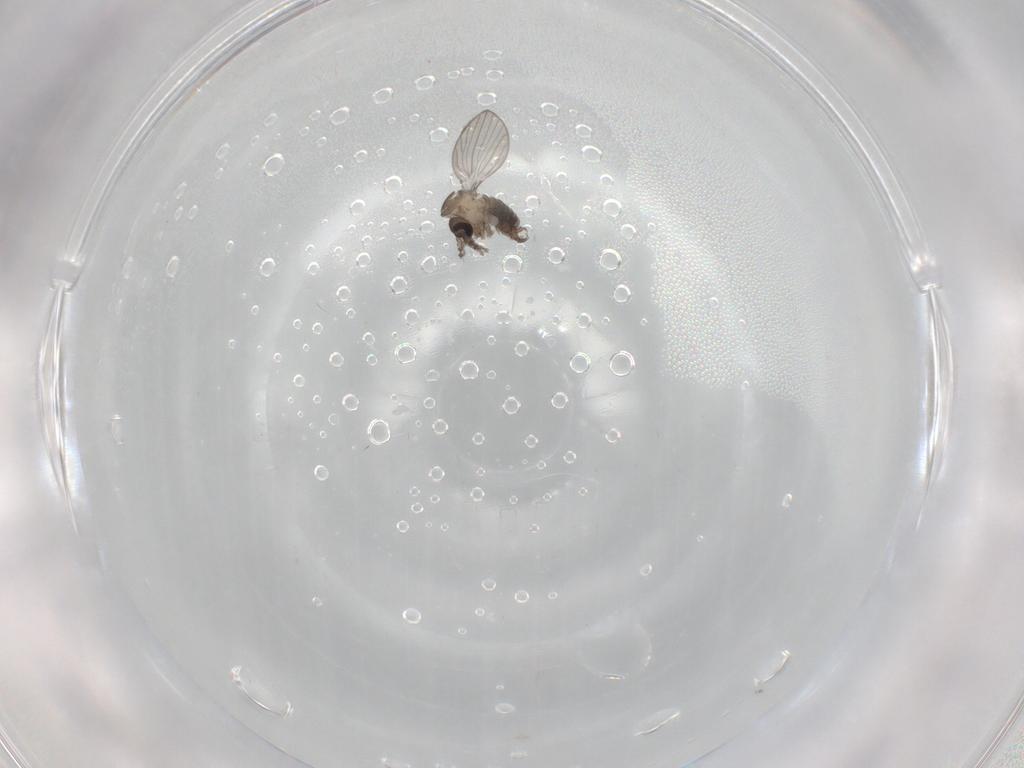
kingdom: Animalia
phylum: Arthropoda
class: Insecta
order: Diptera
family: Psychodidae
